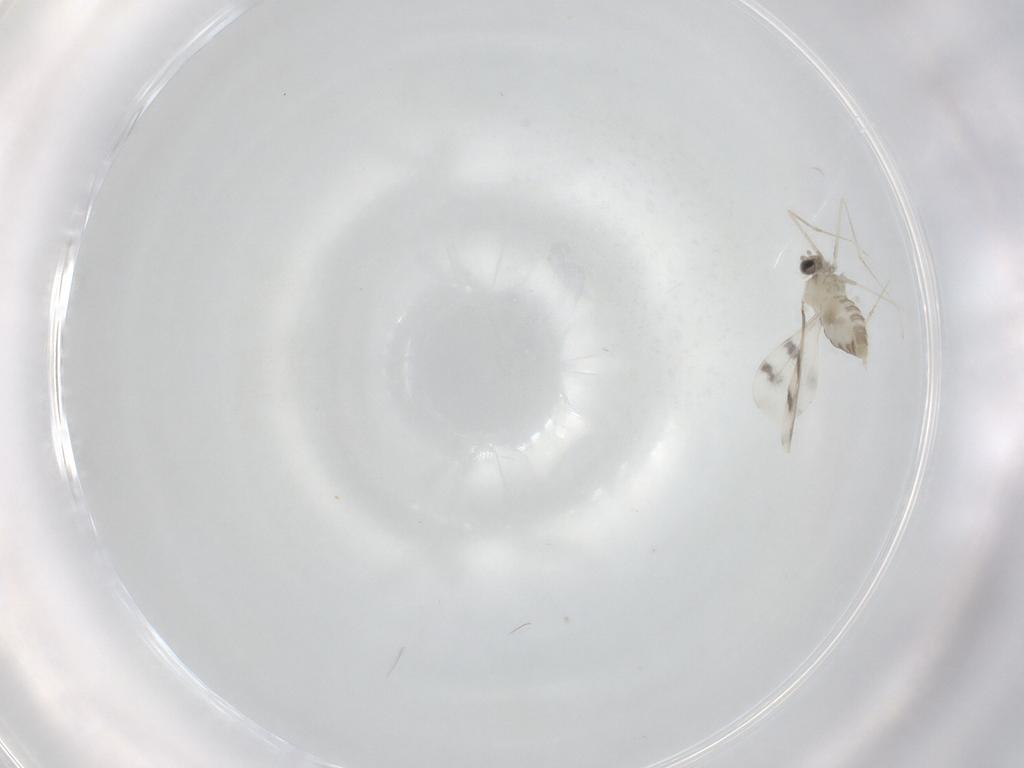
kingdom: Animalia
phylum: Arthropoda
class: Insecta
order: Diptera
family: Cecidomyiidae
